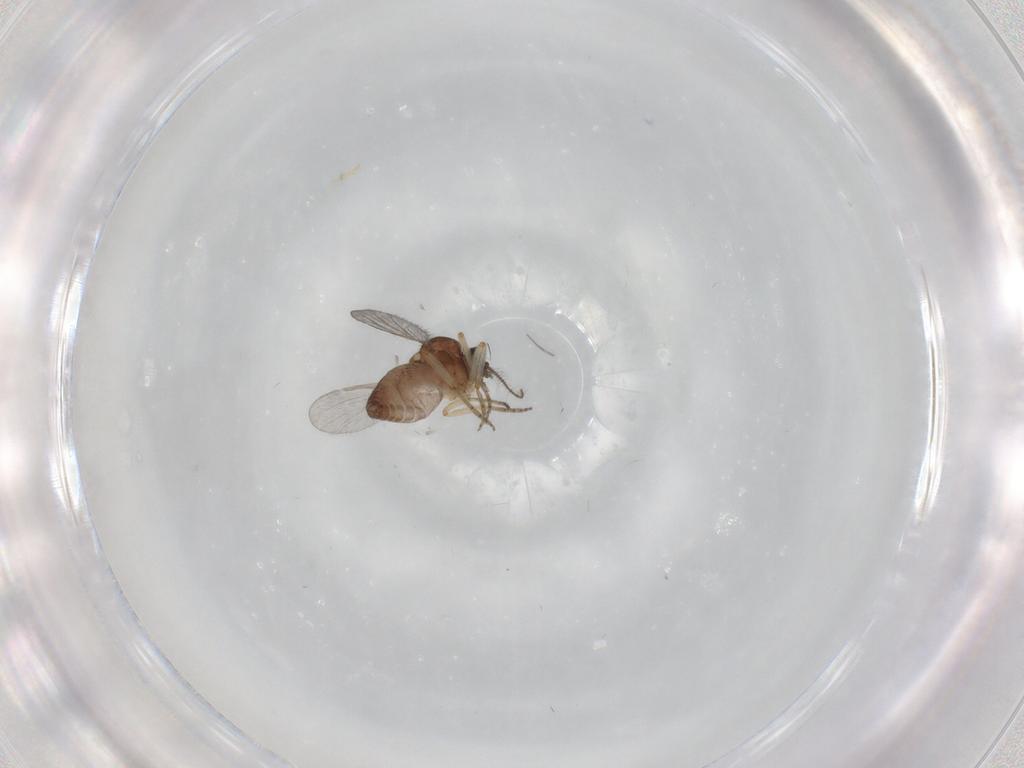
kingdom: Animalia
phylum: Arthropoda
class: Insecta
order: Diptera
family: Ceratopogonidae
